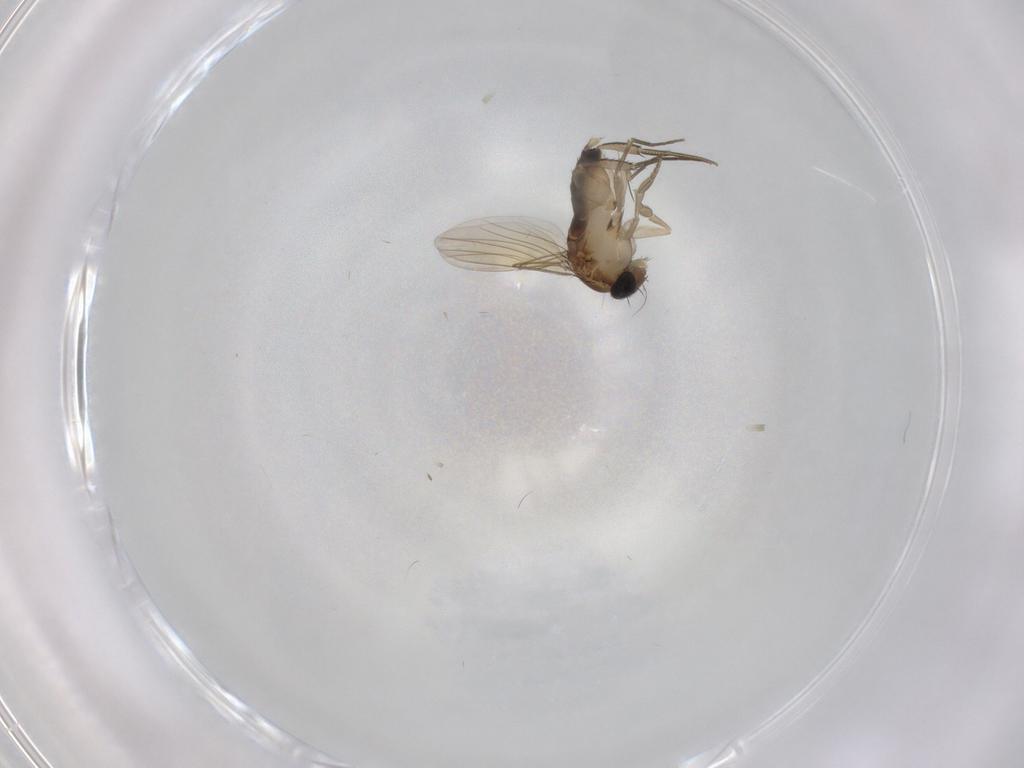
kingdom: Animalia
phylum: Arthropoda
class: Insecta
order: Diptera
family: Phoridae
